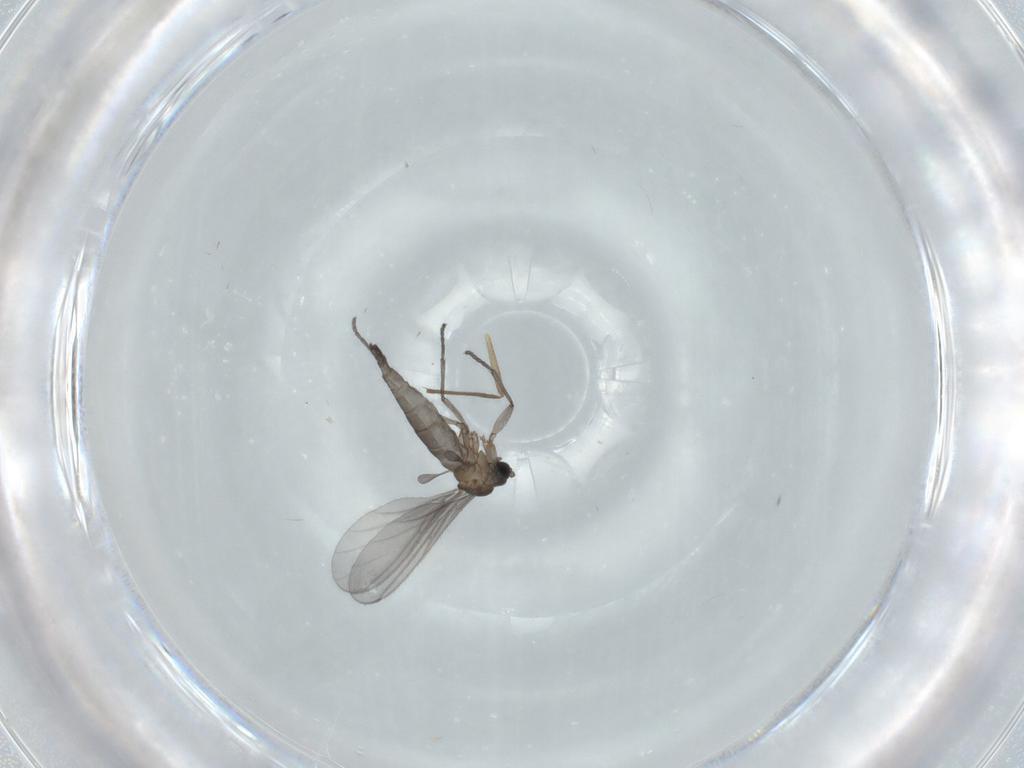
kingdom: Animalia
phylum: Arthropoda
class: Insecta
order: Diptera
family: Sciaridae
